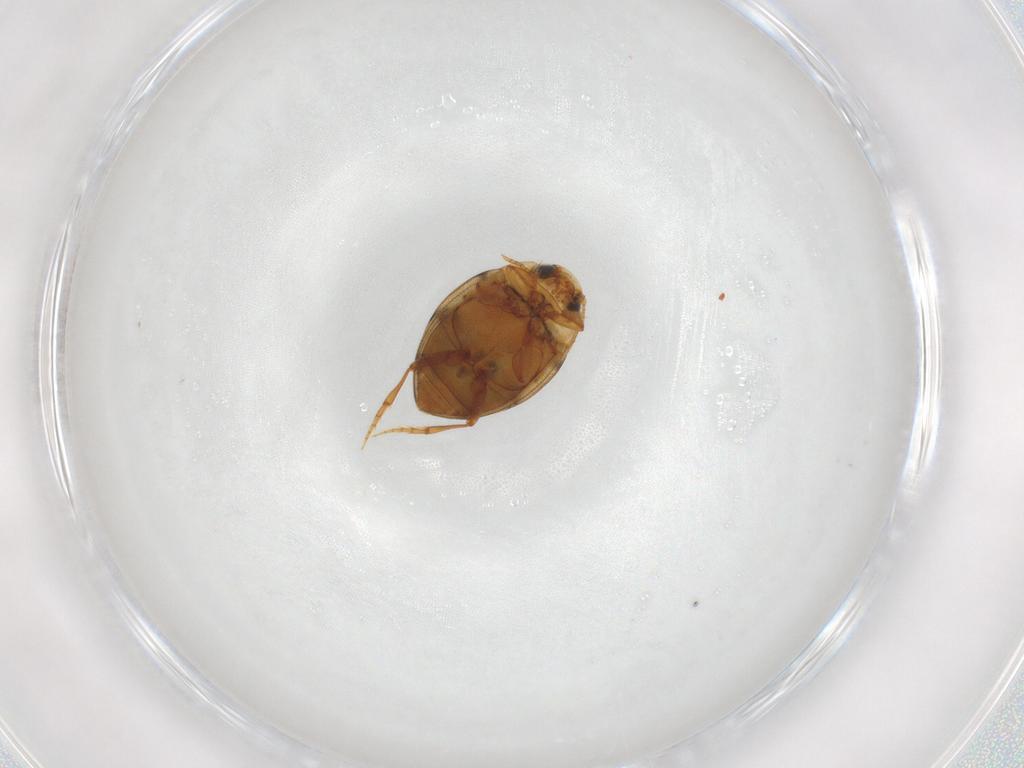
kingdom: Animalia
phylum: Arthropoda
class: Insecta
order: Coleoptera
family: Dytiscidae
